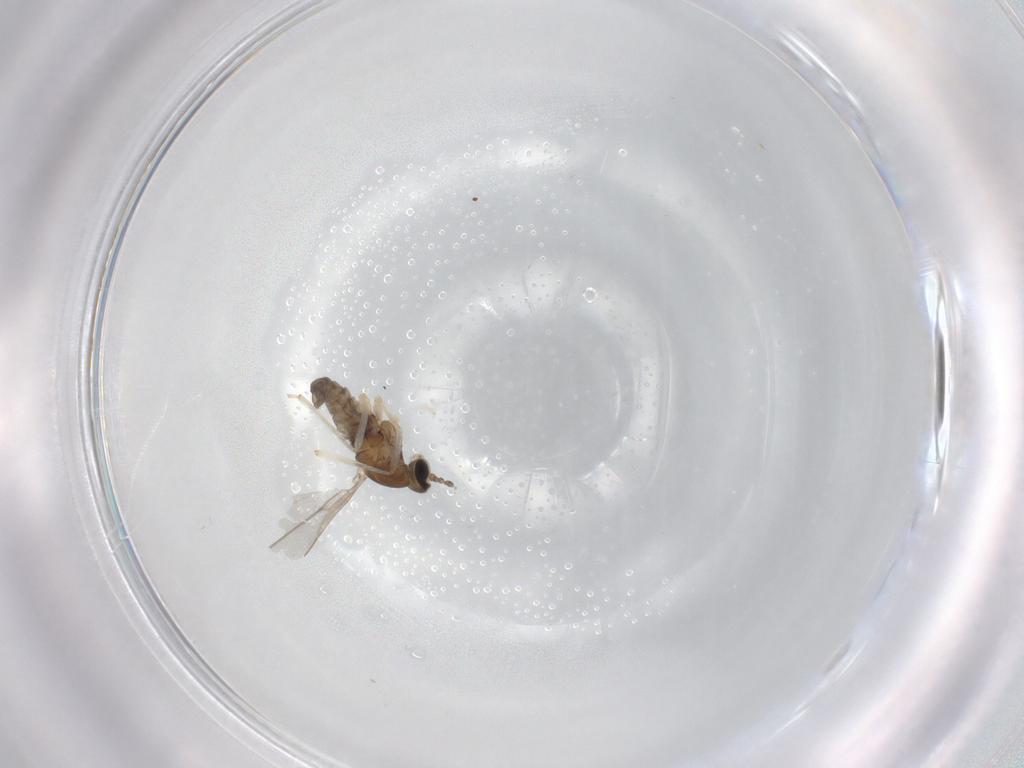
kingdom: Animalia
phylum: Arthropoda
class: Insecta
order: Diptera
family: Cecidomyiidae
